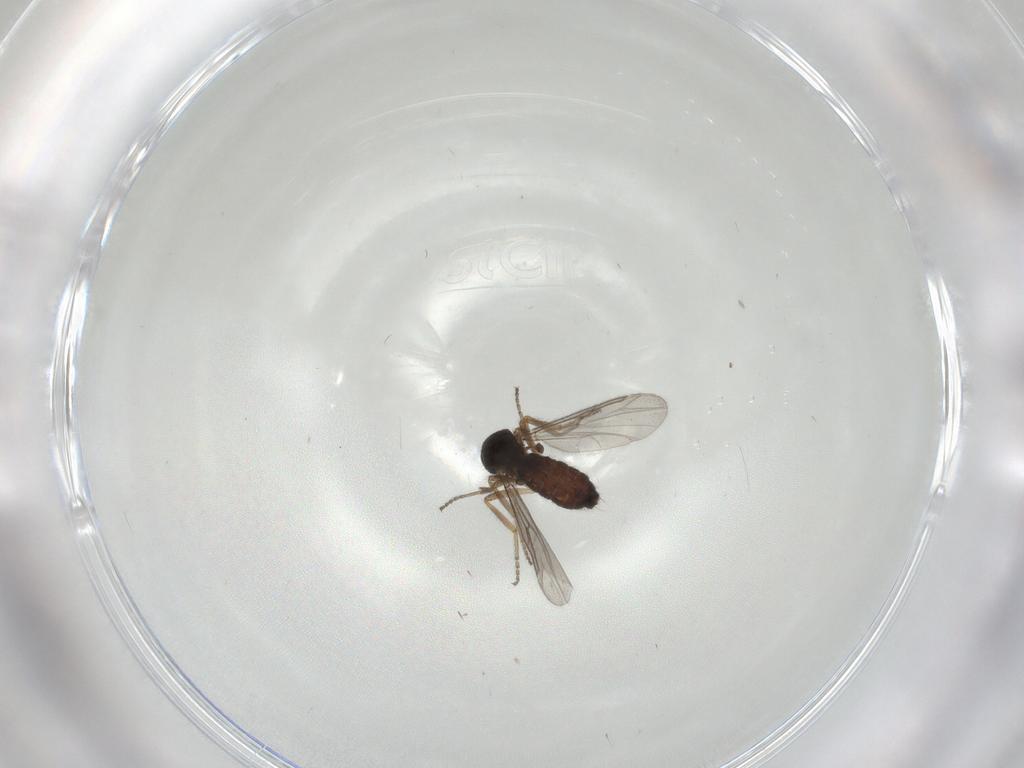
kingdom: Animalia
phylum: Arthropoda
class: Insecta
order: Diptera
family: Ceratopogonidae
